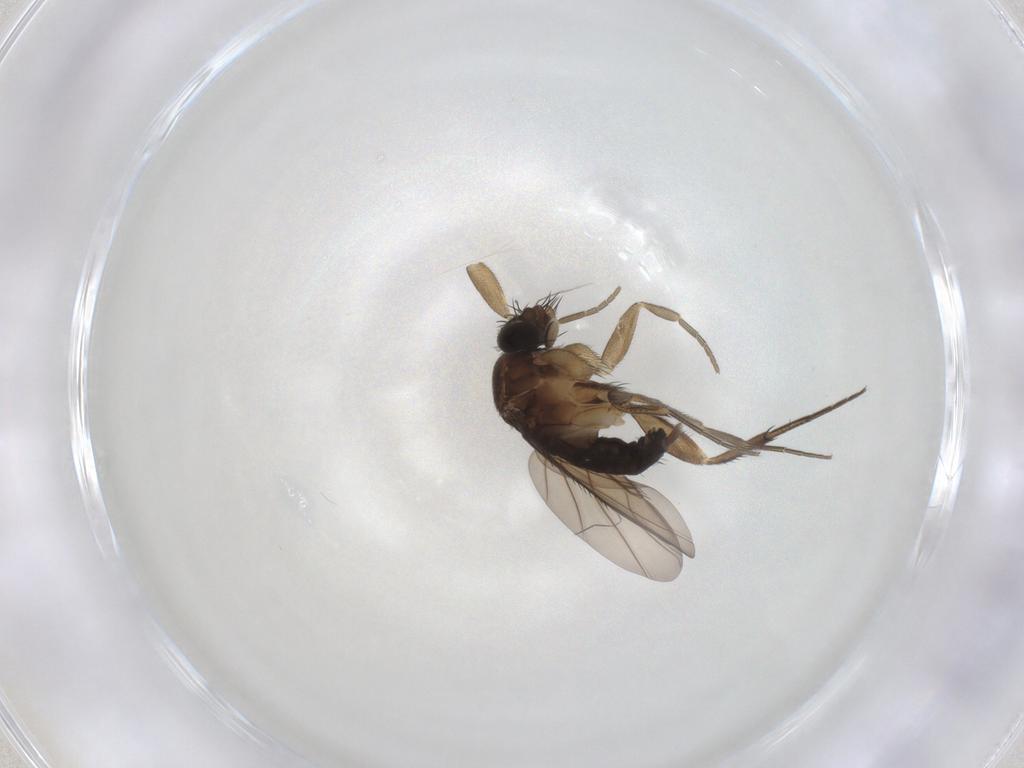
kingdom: Animalia
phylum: Arthropoda
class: Insecta
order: Diptera
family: Phoridae
